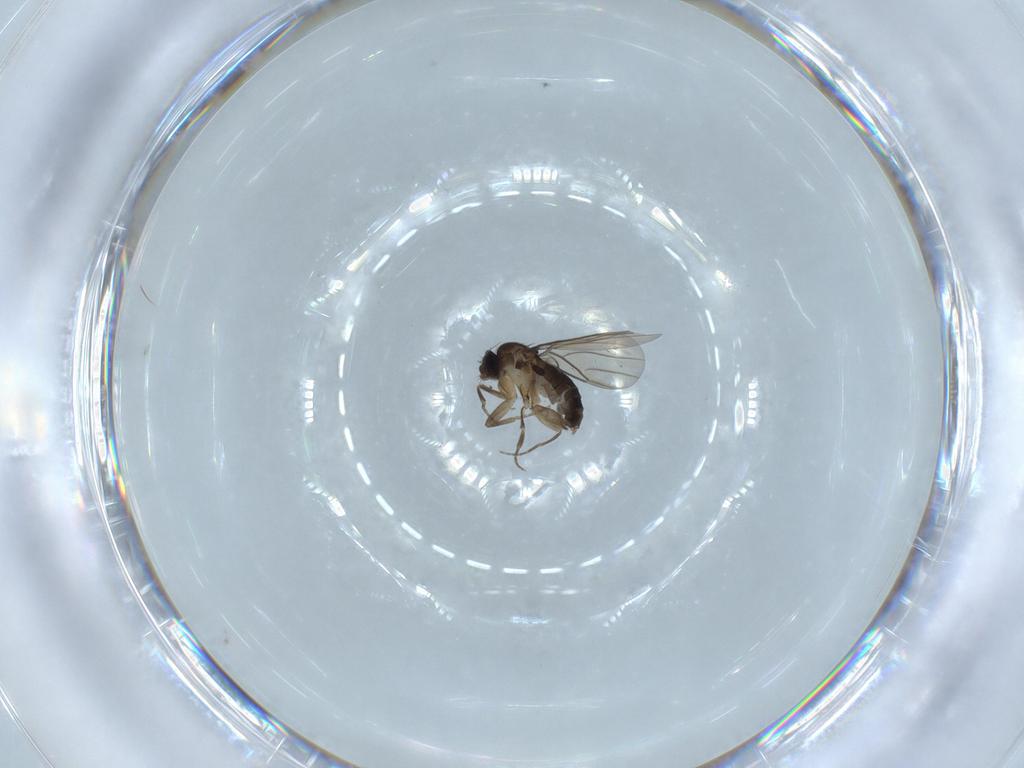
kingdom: Animalia
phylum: Arthropoda
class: Insecta
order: Diptera
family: Phoridae
